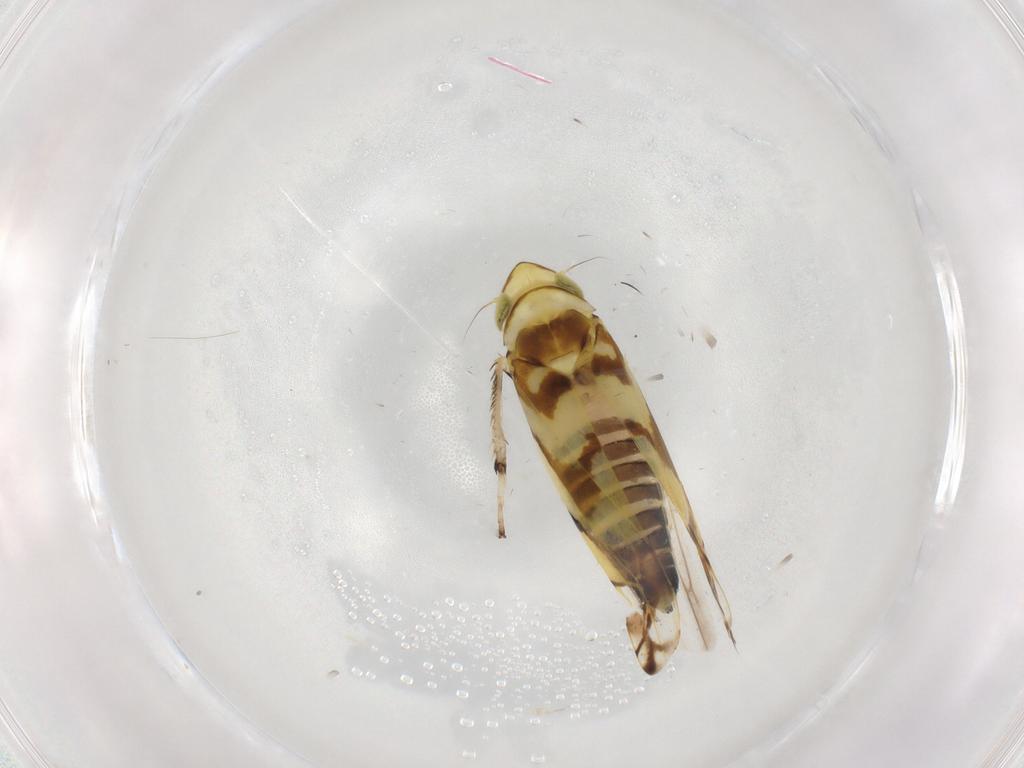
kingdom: Animalia
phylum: Arthropoda
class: Insecta
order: Hemiptera
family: Cicadellidae
